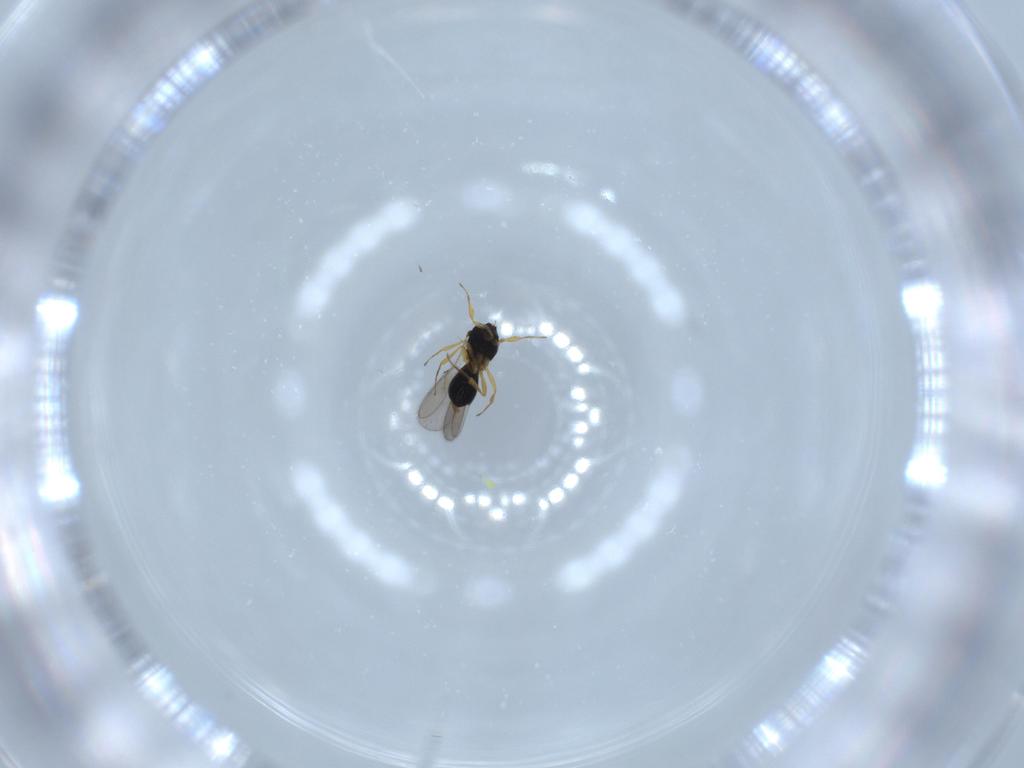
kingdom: Animalia
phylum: Arthropoda
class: Insecta
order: Hymenoptera
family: Scelionidae
